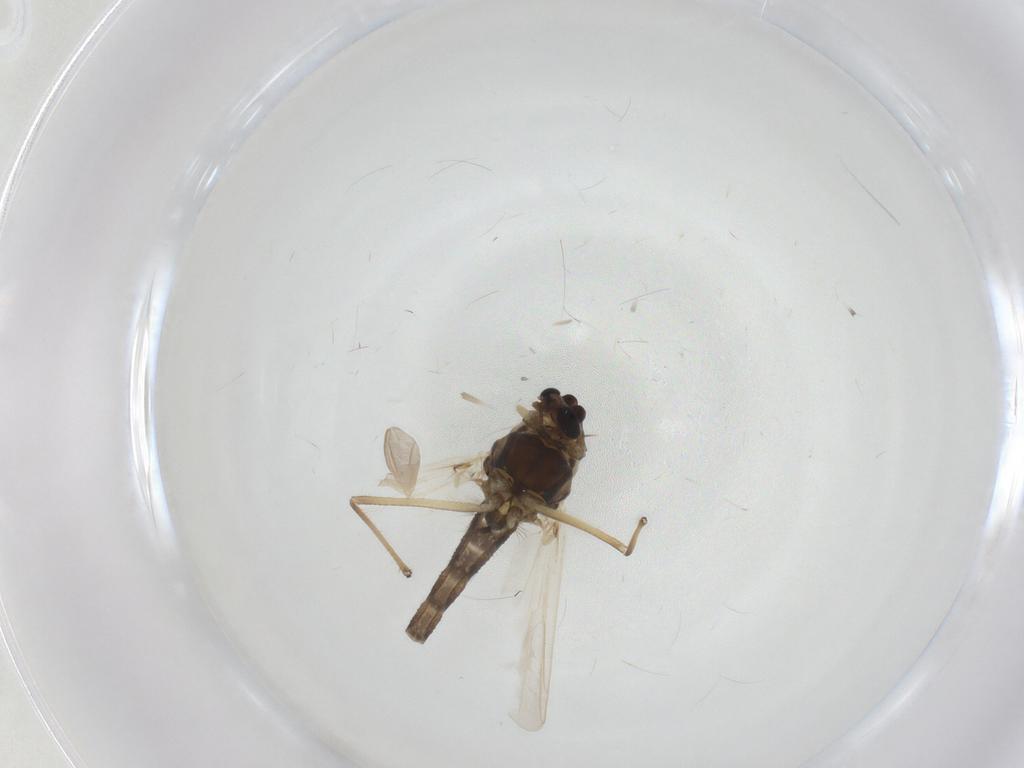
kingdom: Animalia
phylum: Arthropoda
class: Insecta
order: Diptera
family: Chironomidae
